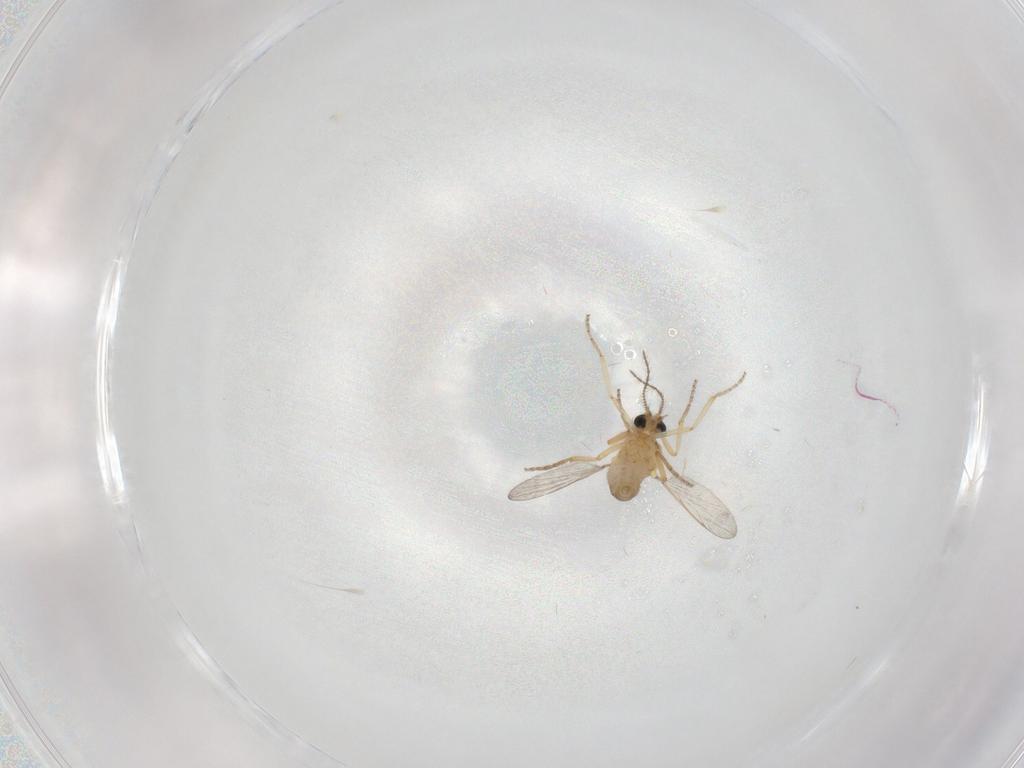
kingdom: Animalia
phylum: Arthropoda
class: Insecta
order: Diptera
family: Ceratopogonidae
